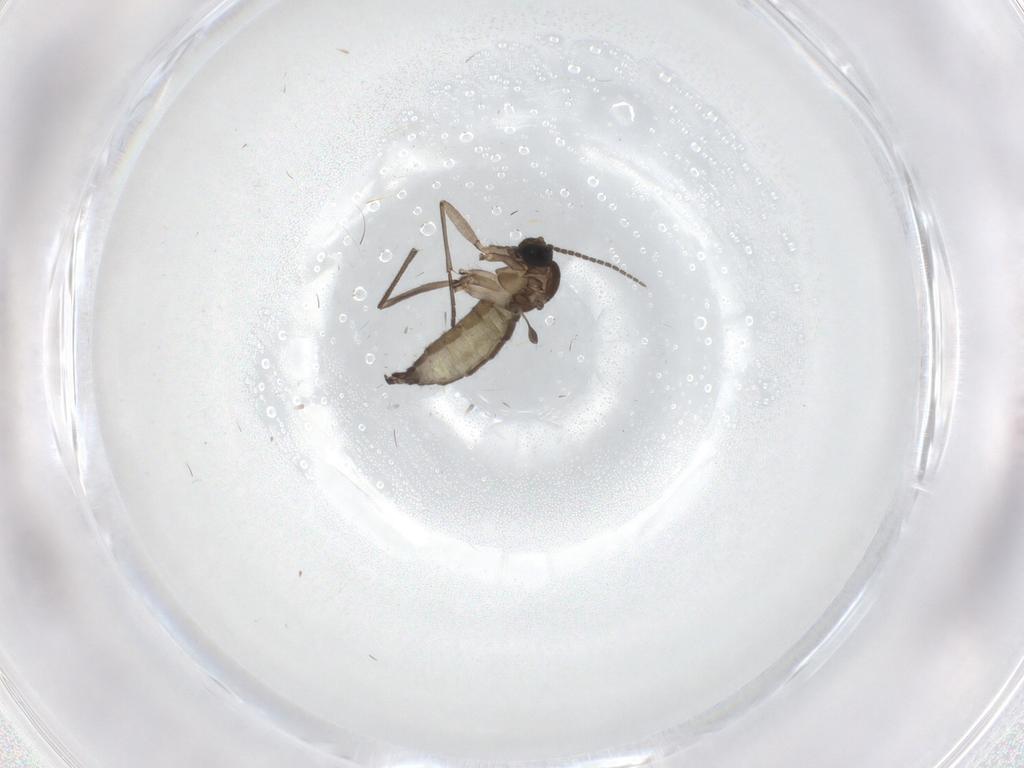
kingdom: Animalia
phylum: Arthropoda
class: Insecta
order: Diptera
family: Sciaridae
